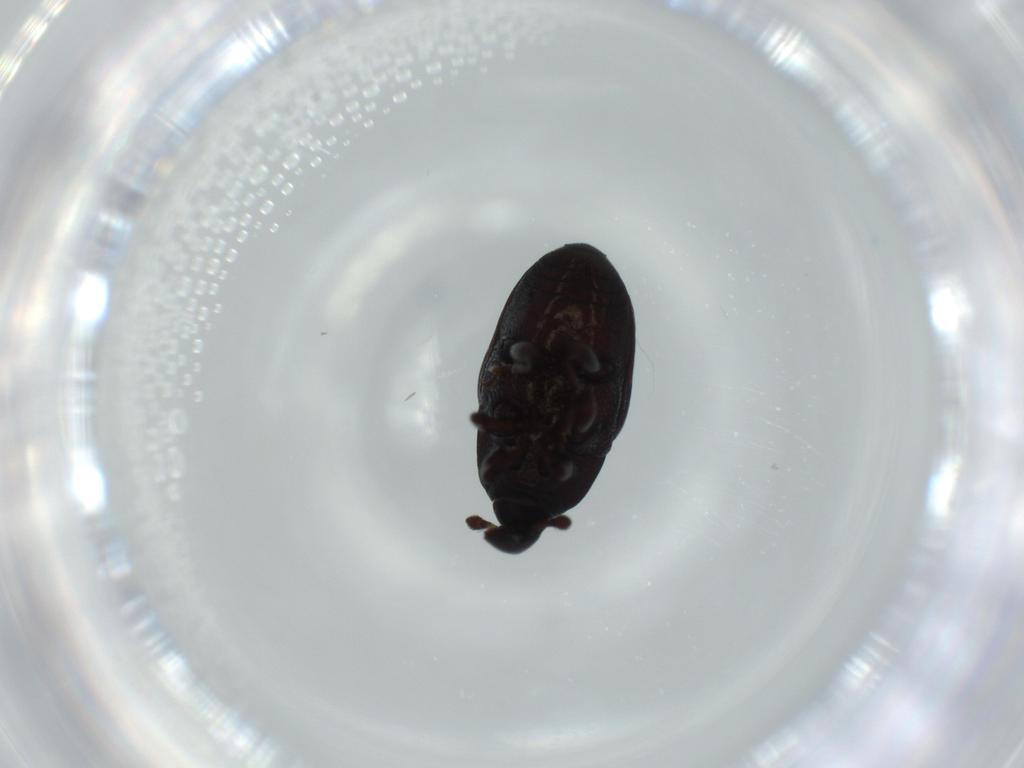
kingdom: Animalia
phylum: Arthropoda
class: Insecta
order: Coleoptera
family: Curculionidae
